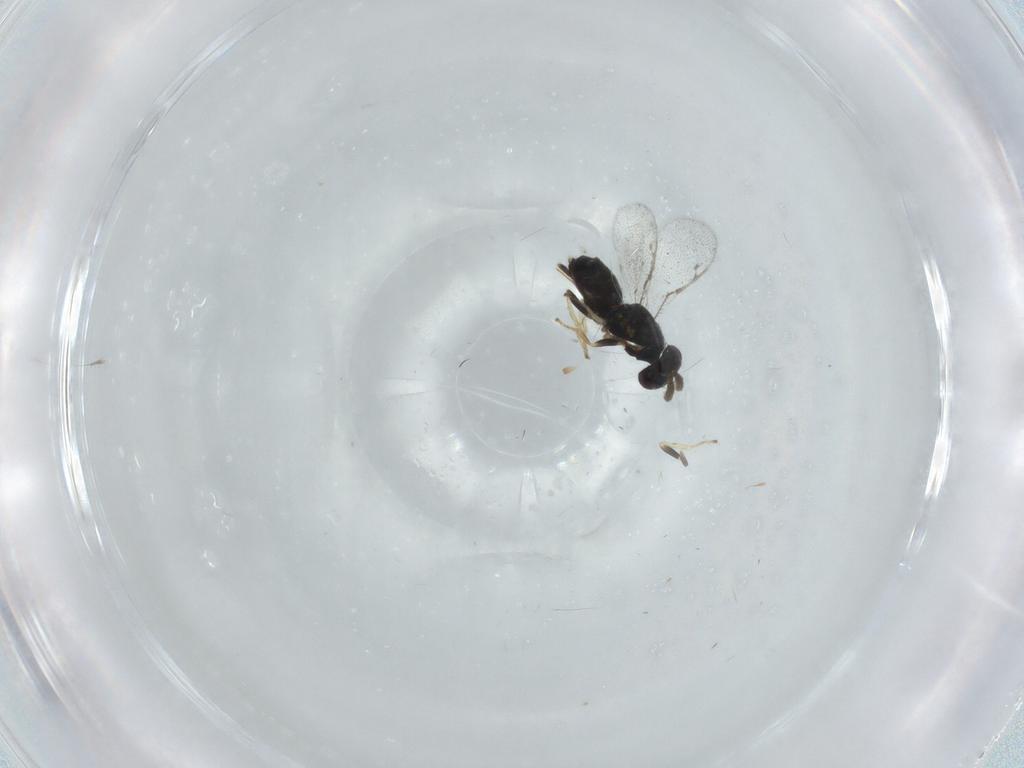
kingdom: Animalia
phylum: Arthropoda
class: Insecta
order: Hymenoptera
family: Pirenidae
